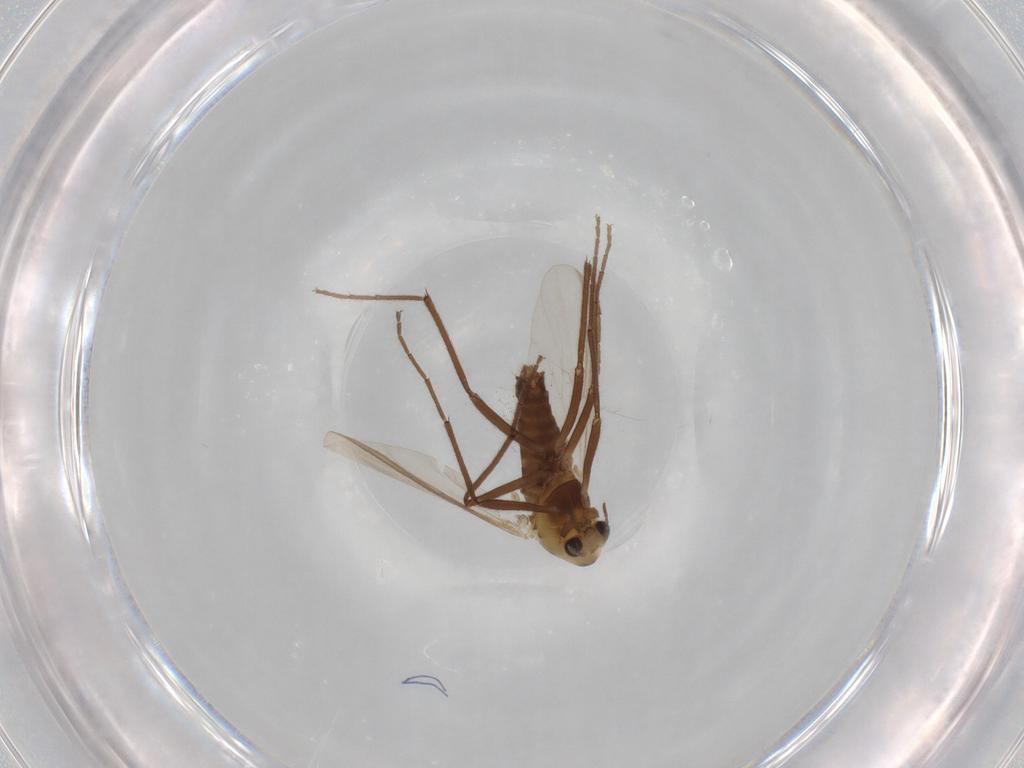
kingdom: Animalia
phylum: Arthropoda
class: Insecta
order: Diptera
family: Chironomidae
